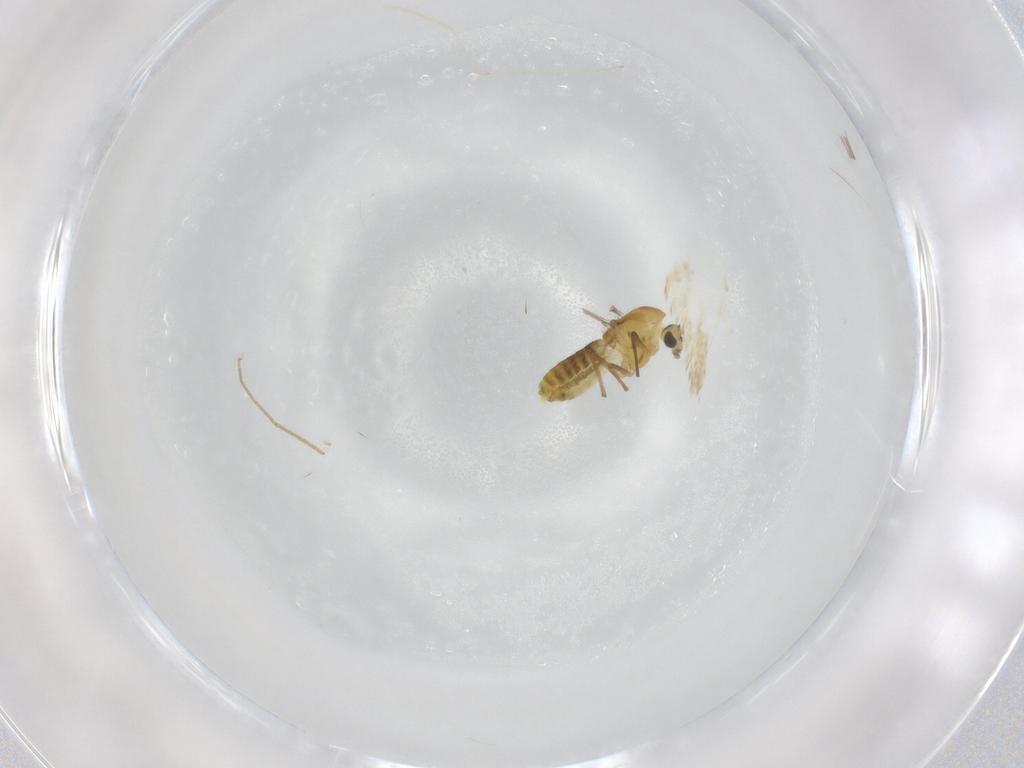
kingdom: Animalia
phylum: Arthropoda
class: Insecta
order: Diptera
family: Chironomidae
